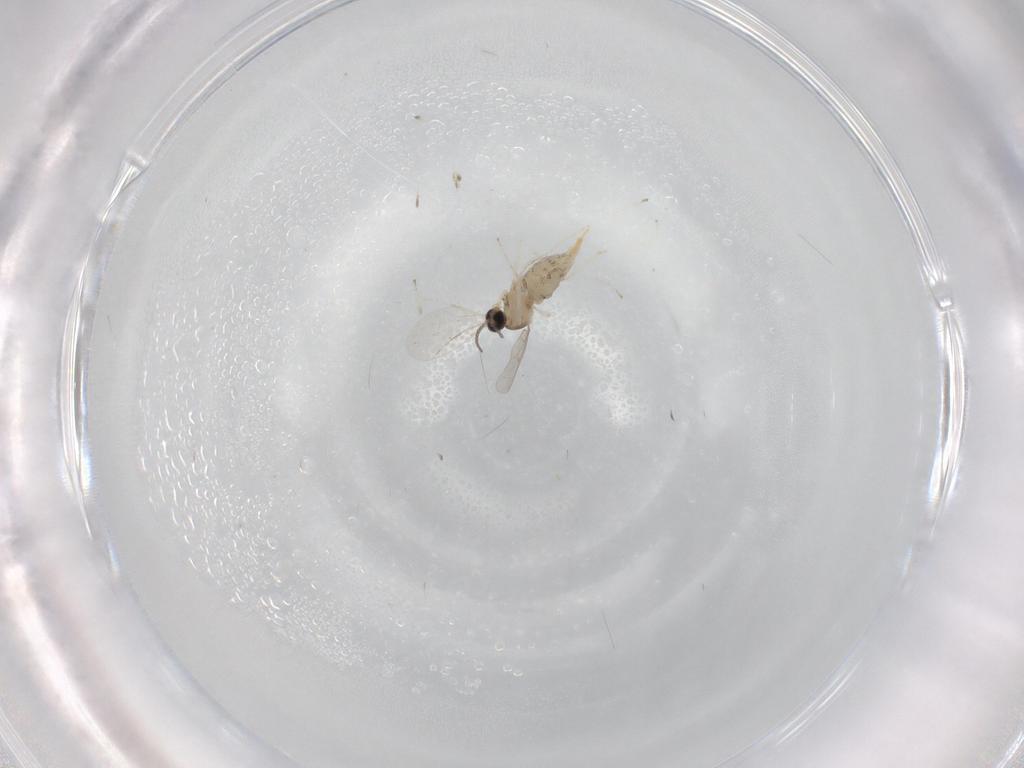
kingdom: Animalia
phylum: Arthropoda
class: Insecta
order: Diptera
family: Cecidomyiidae
